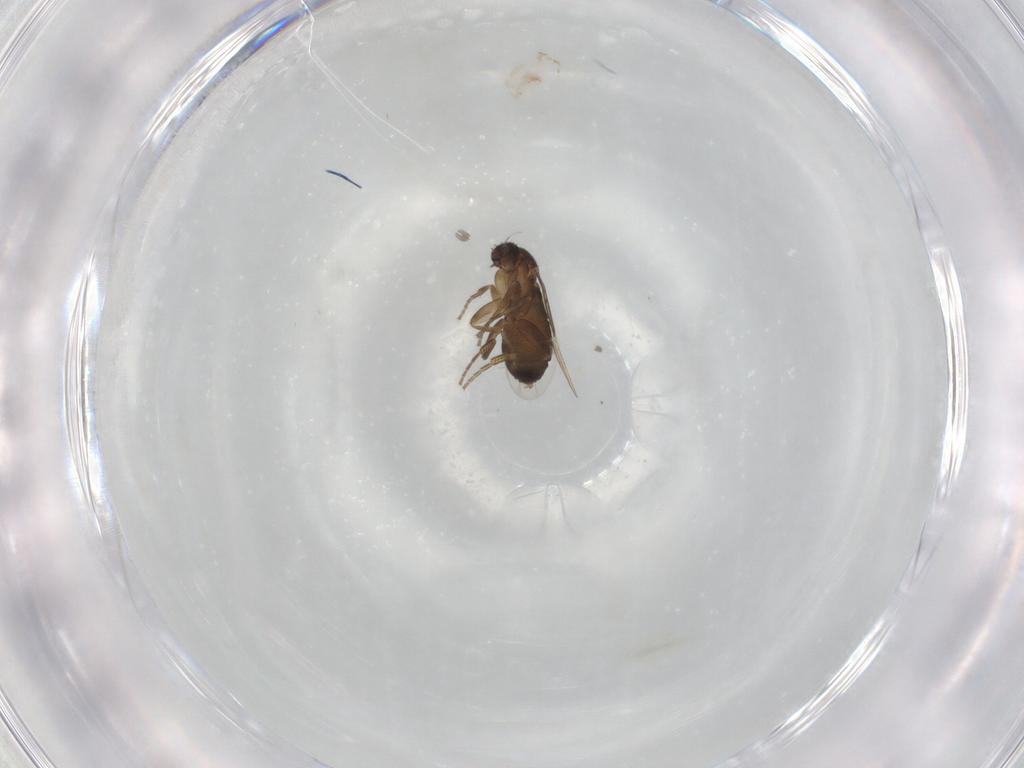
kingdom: Animalia
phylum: Arthropoda
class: Insecta
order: Diptera
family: Phoridae
